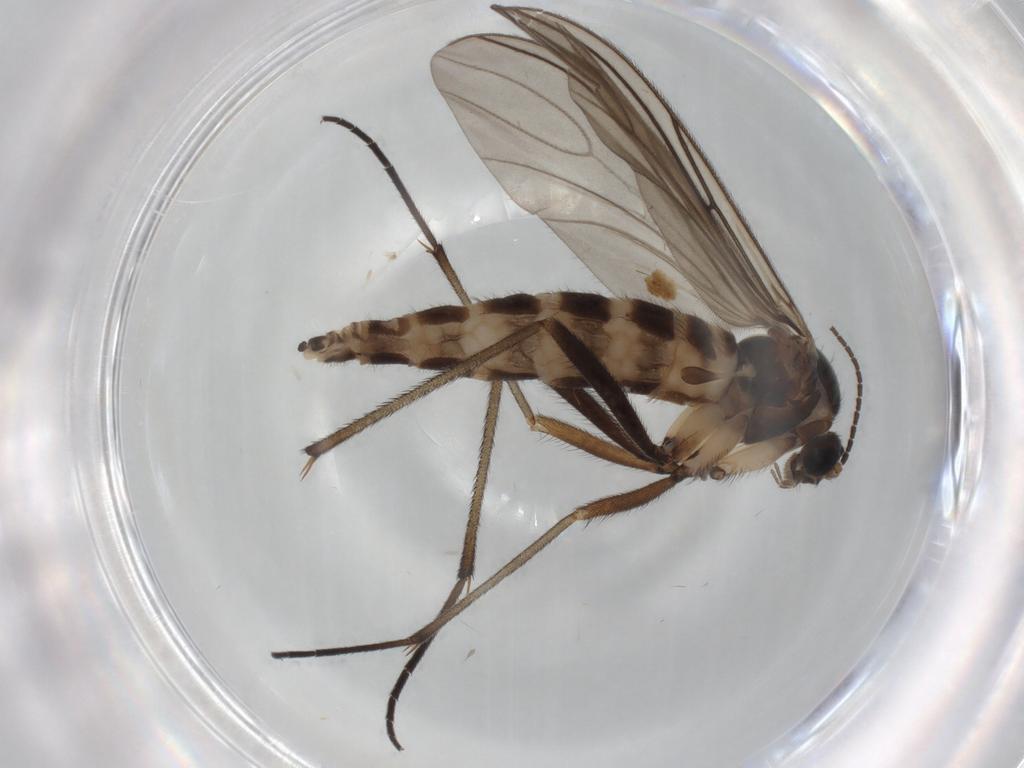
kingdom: Animalia
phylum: Arthropoda
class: Insecta
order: Diptera
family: Sciaridae
